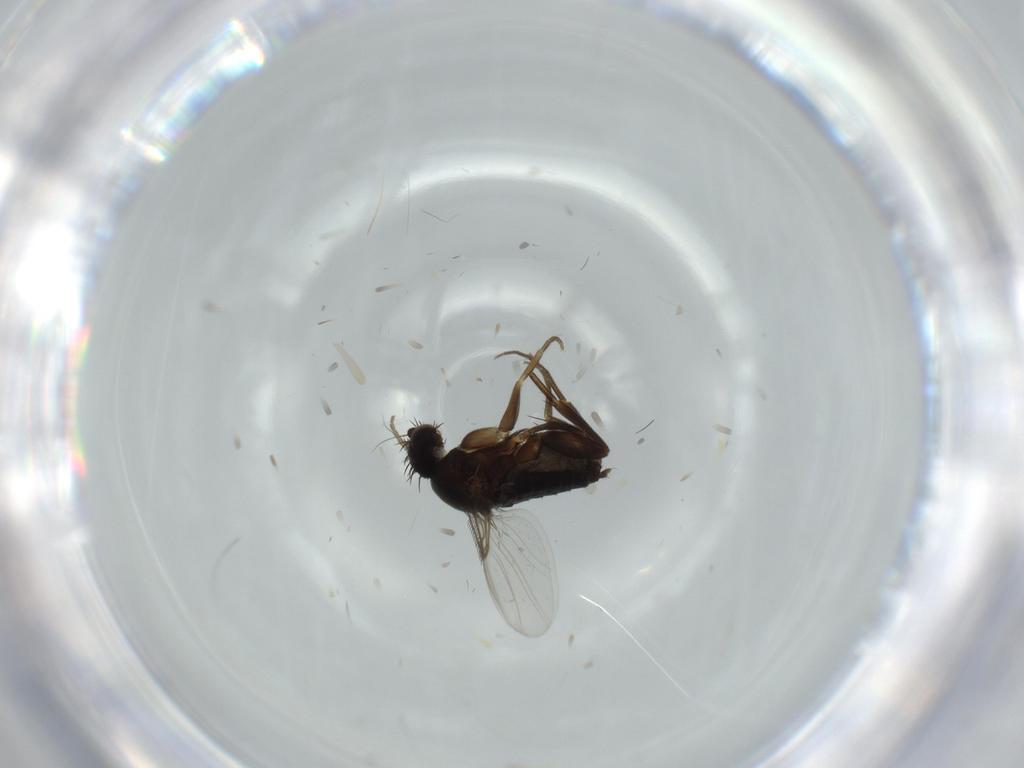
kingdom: Animalia
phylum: Arthropoda
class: Insecta
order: Diptera
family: Phoridae
